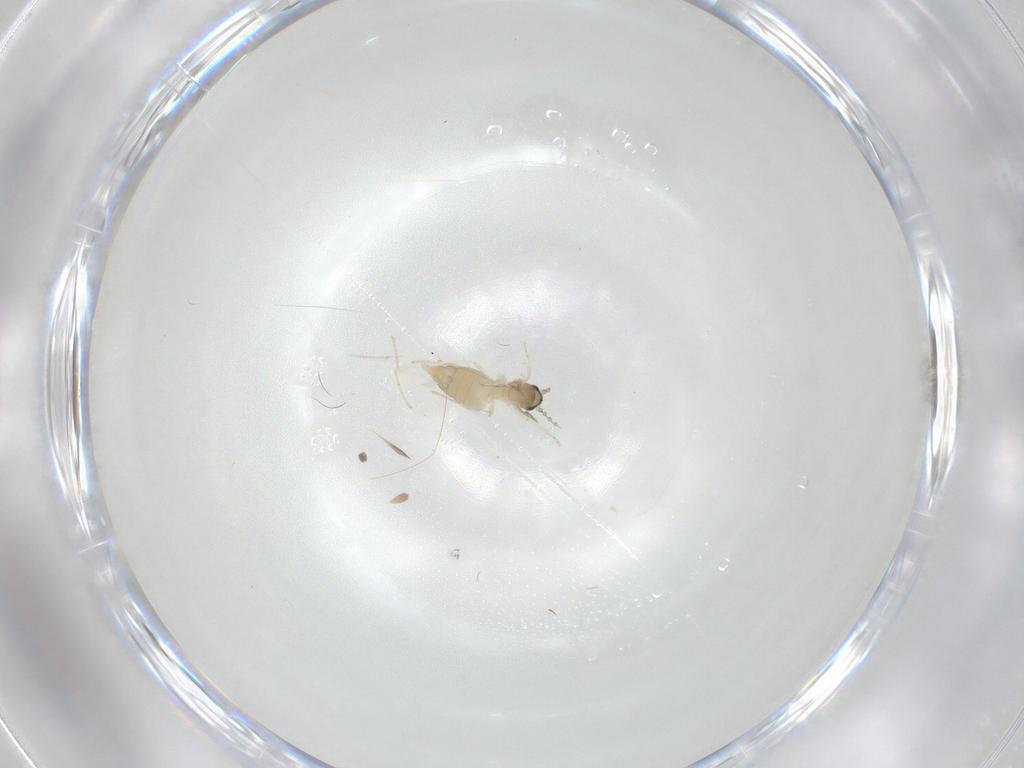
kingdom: Animalia
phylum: Arthropoda
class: Insecta
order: Diptera
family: Cecidomyiidae
